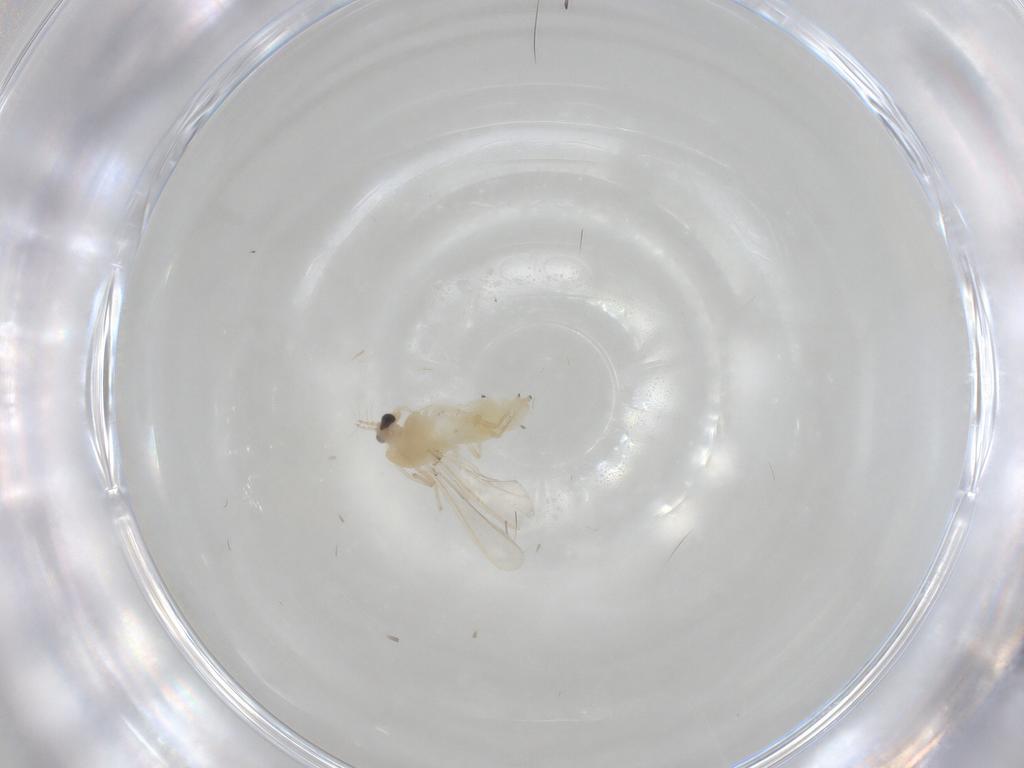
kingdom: Animalia
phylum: Arthropoda
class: Insecta
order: Diptera
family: Chironomidae
